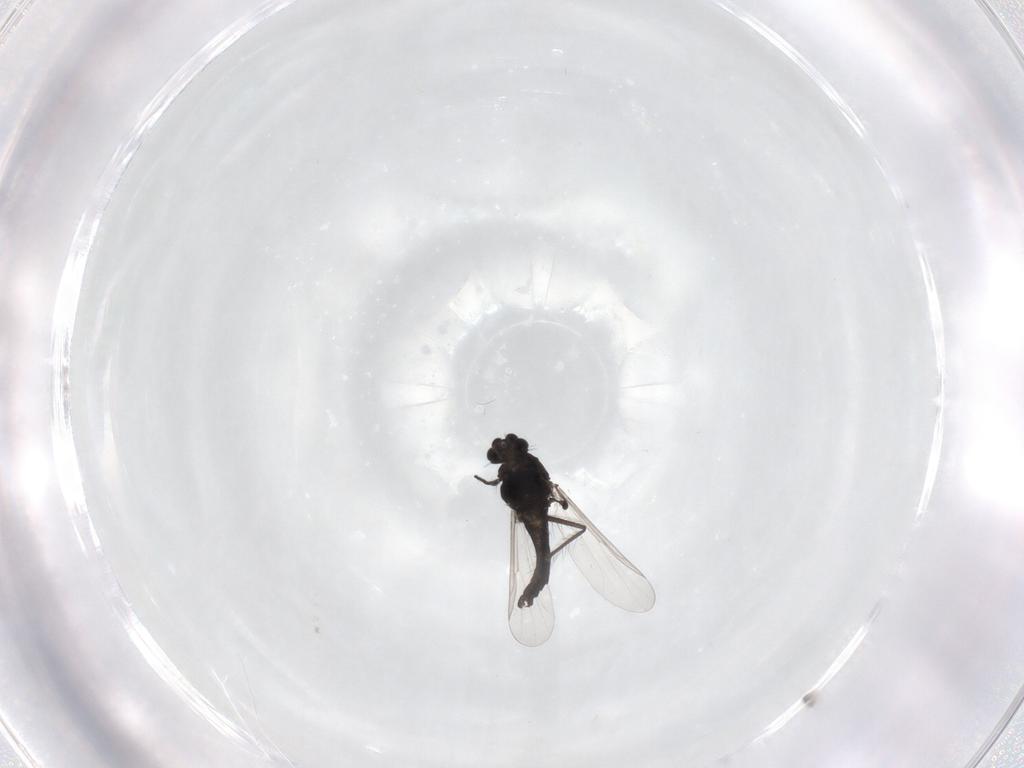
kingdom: Animalia
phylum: Arthropoda
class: Insecta
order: Diptera
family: Chironomidae
